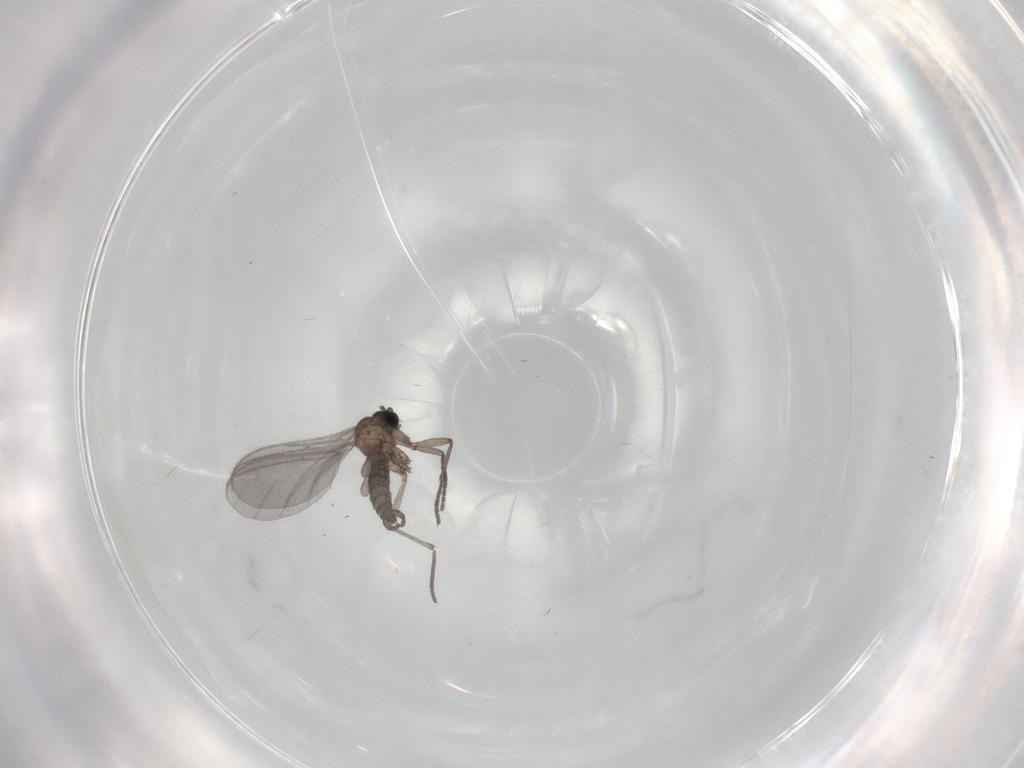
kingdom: Animalia
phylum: Arthropoda
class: Insecta
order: Diptera
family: Sciaridae
